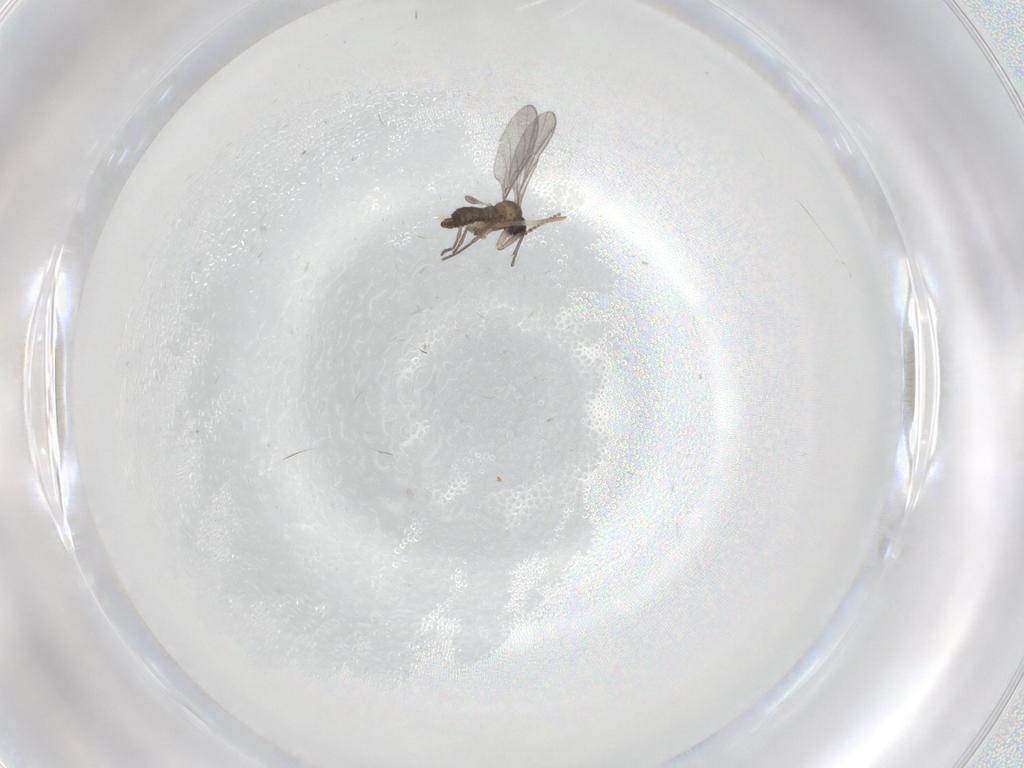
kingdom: Animalia
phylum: Arthropoda
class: Insecta
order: Diptera
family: Sciaridae
